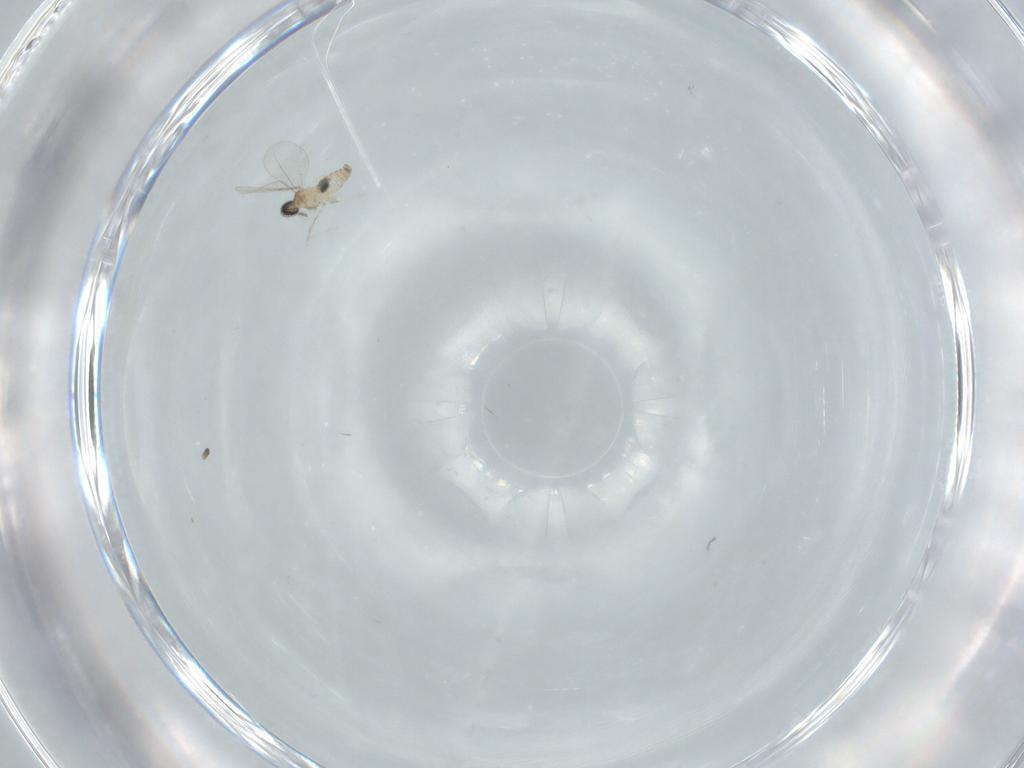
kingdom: Animalia
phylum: Arthropoda
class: Insecta
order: Diptera
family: Cecidomyiidae
